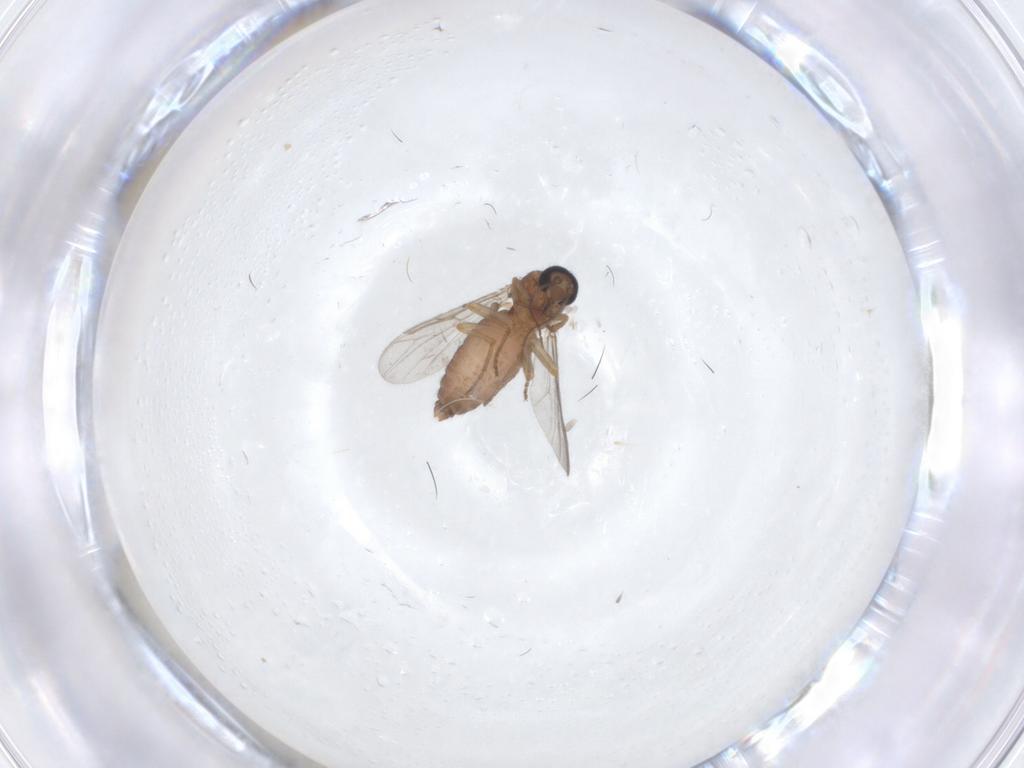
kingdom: Animalia
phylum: Arthropoda
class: Insecta
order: Diptera
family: Ceratopogonidae
